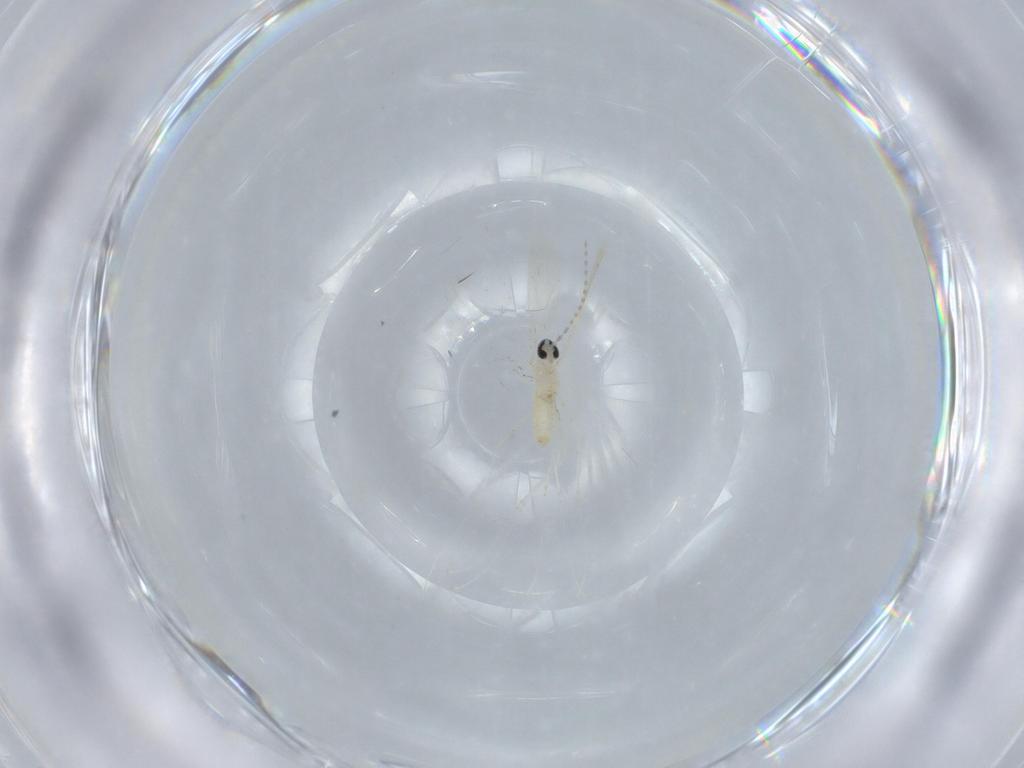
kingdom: Animalia
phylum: Arthropoda
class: Insecta
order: Diptera
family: Cecidomyiidae
